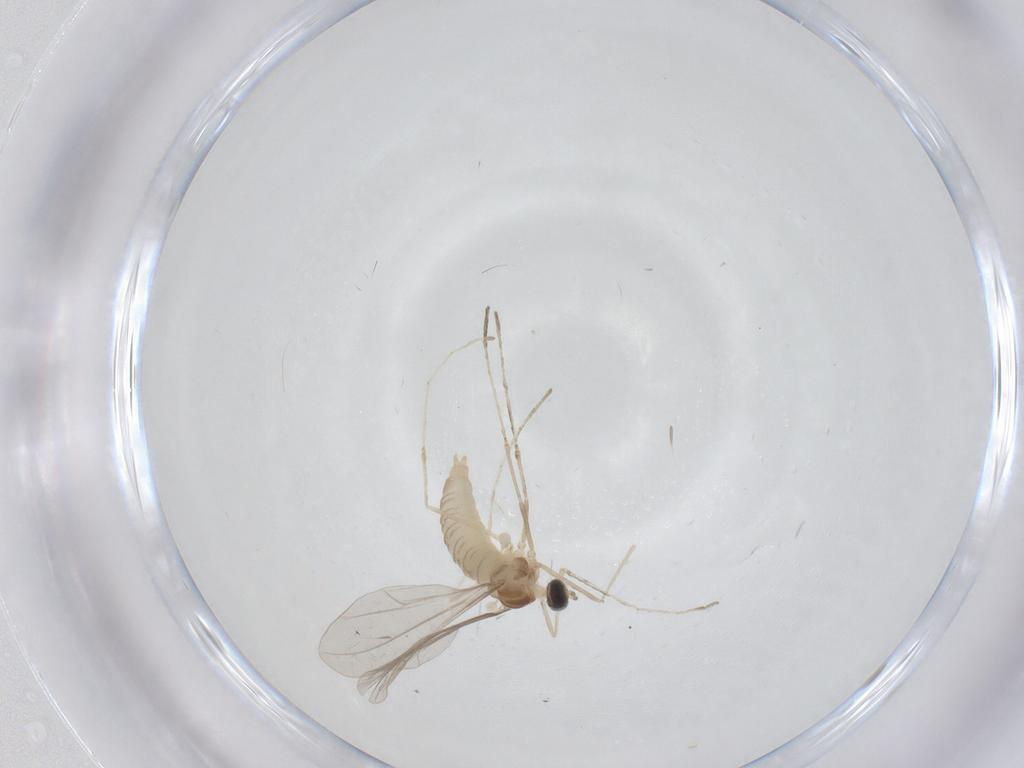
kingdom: Animalia
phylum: Arthropoda
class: Insecta
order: Diptera
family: Cecidomyiidae
